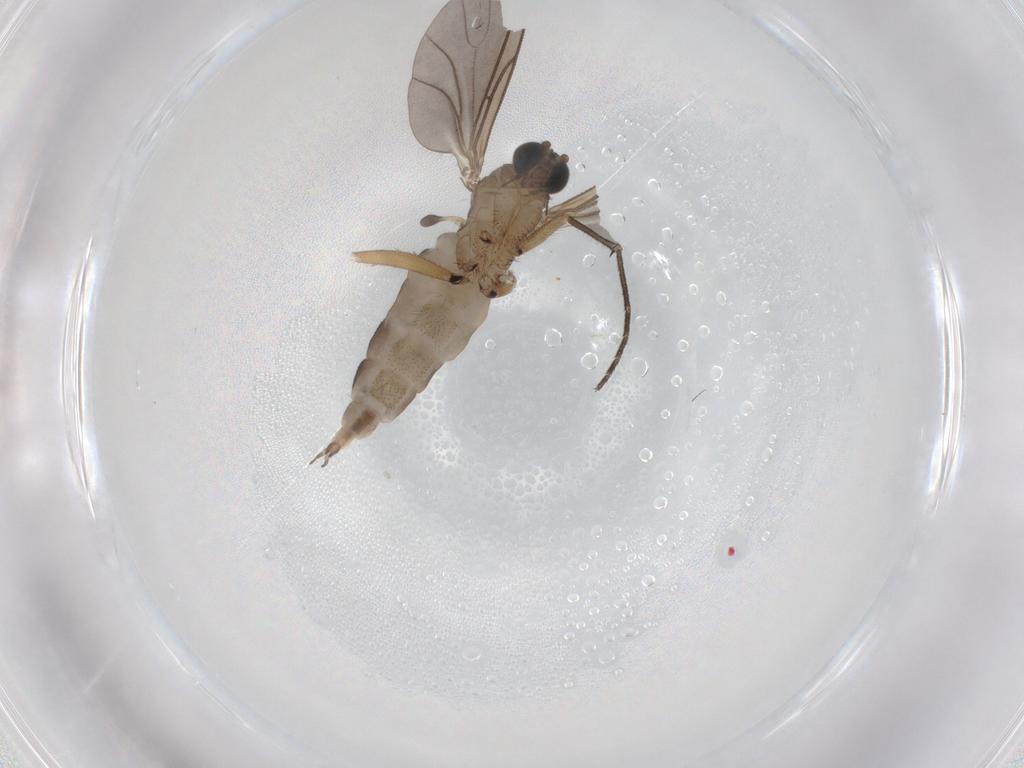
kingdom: Animalia
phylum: Arthropoda
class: Insecta
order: Diptera
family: Sciaridae
